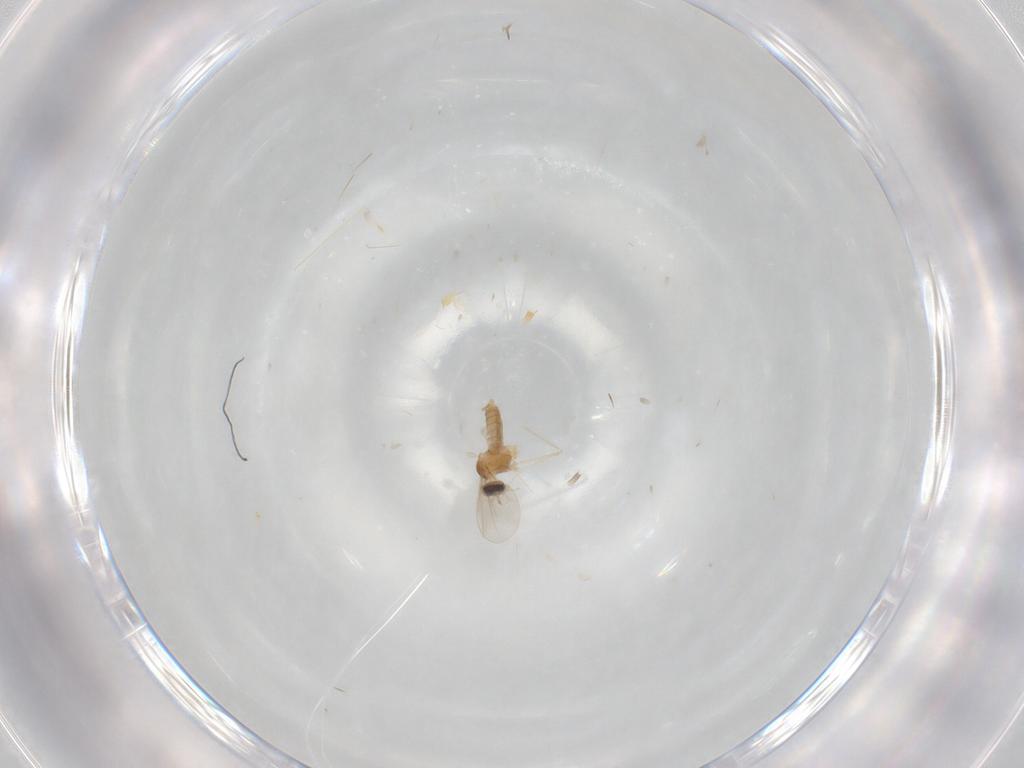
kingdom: Animalia
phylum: Arthropoda
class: Insecta
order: Diptera
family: Cecidomyiidae
